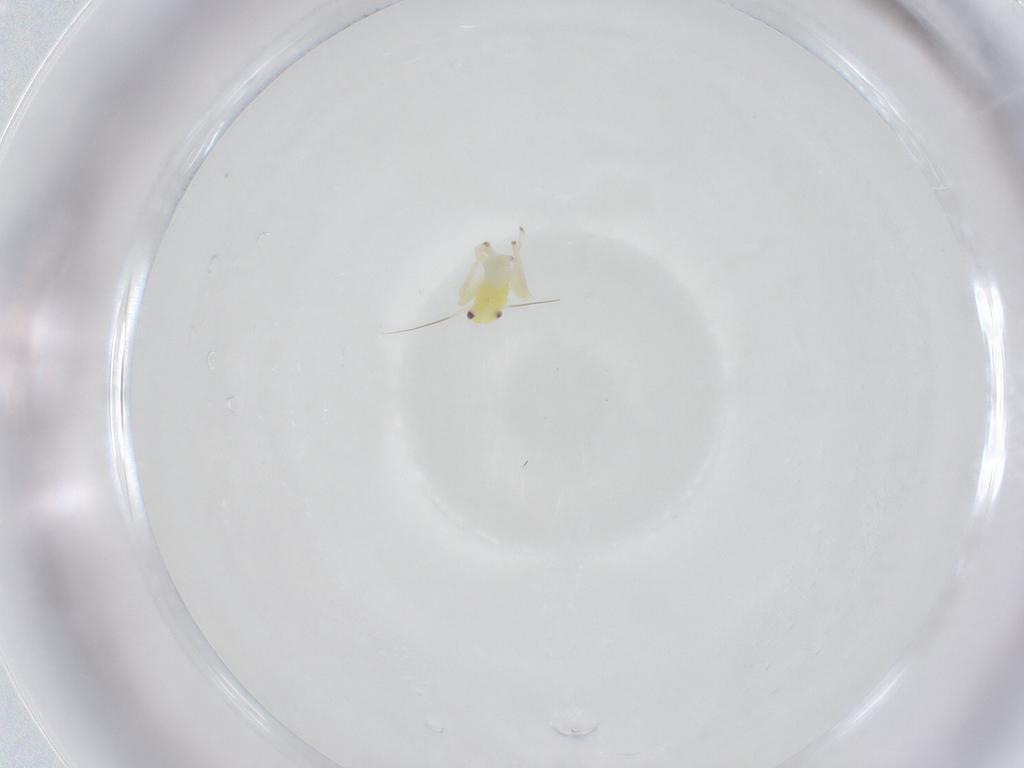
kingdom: Animalia
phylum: Arthropoda
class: Insecta
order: Hemiptera
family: Cicadellidae
